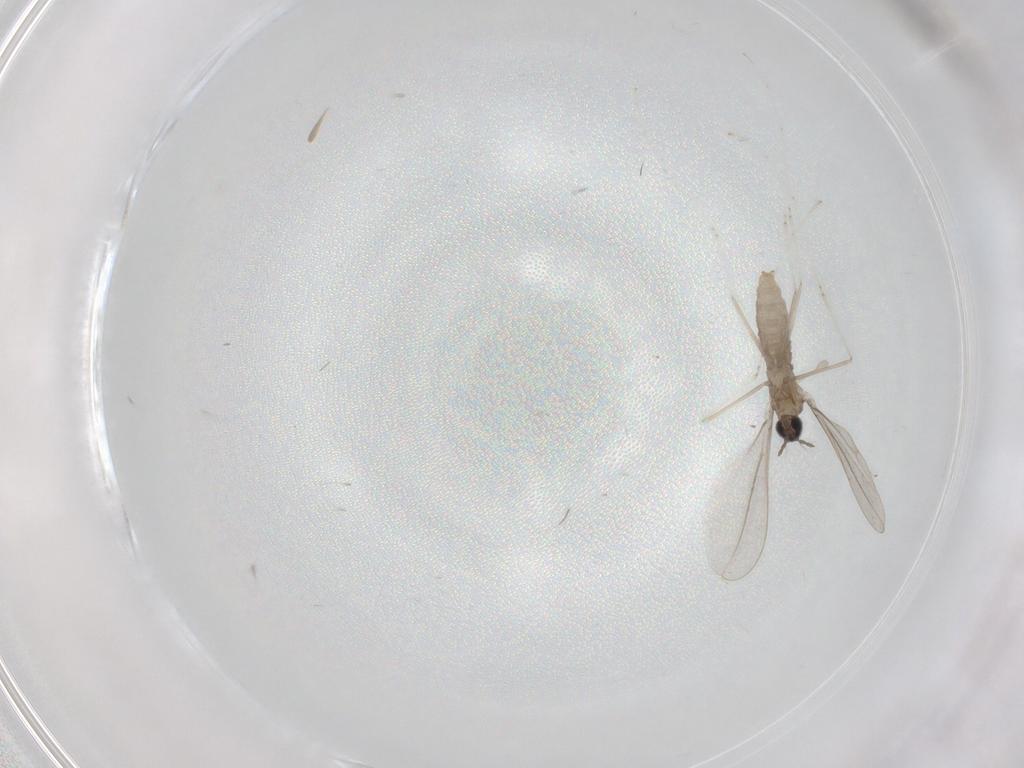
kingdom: Animalia
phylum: Arthropoda
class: Insecta
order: Diptera
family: Cecidomyiidae
